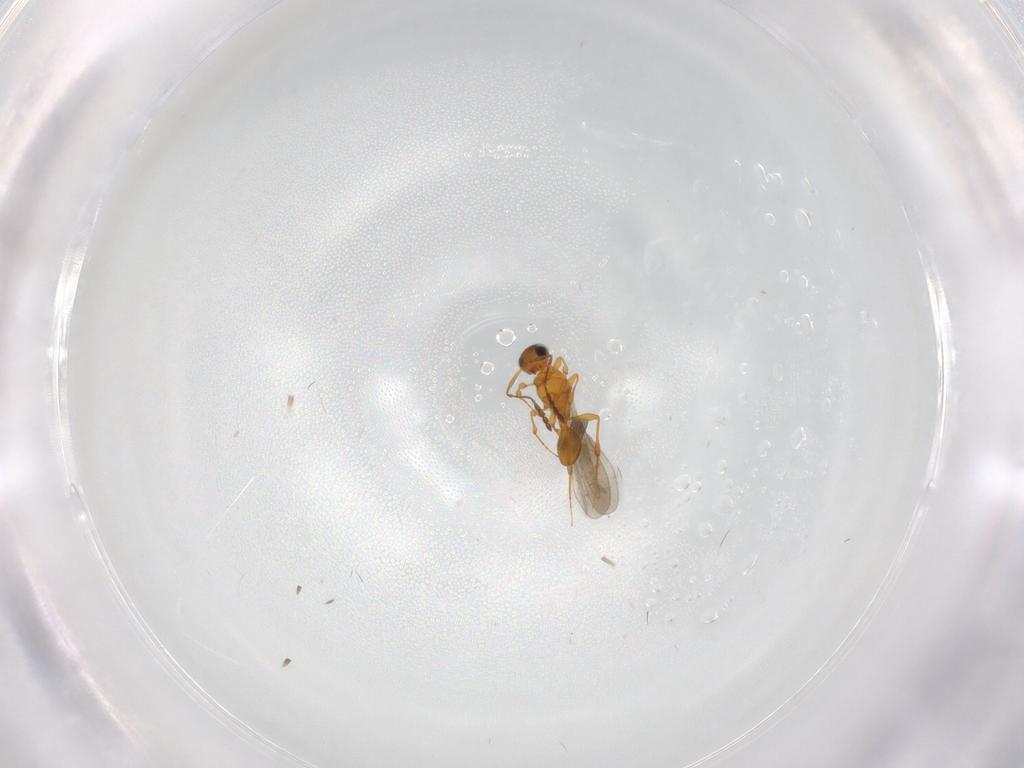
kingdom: Animalia
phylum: Arthropoda
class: Insecta
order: Hymenoptera
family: Platygastridae
